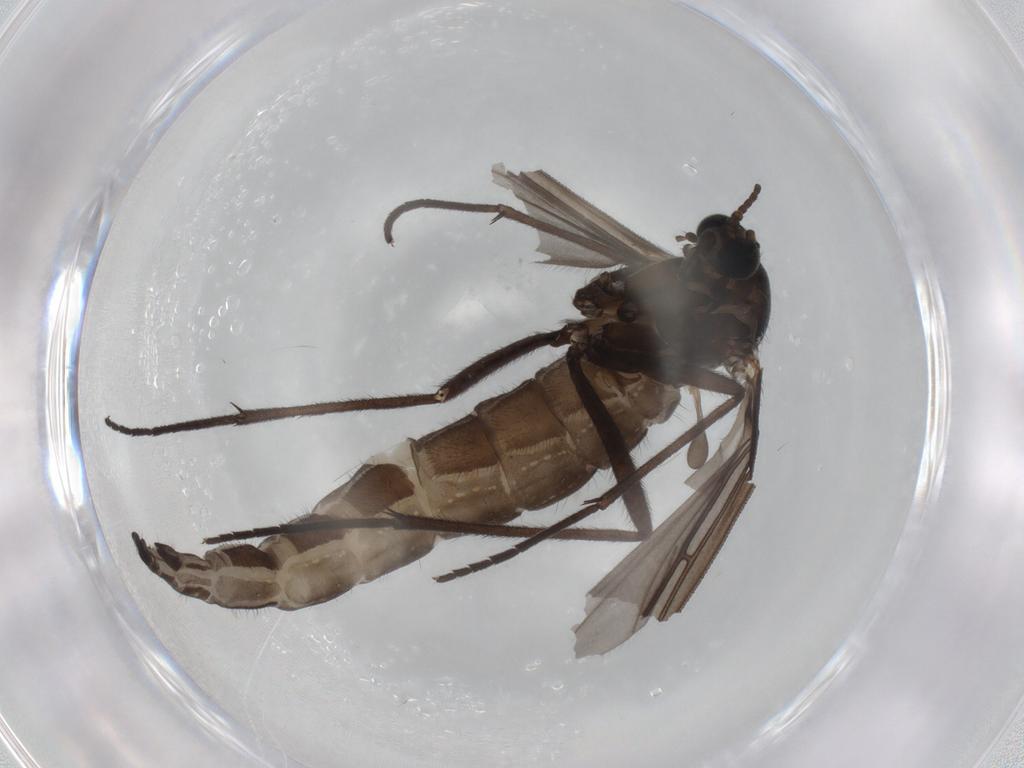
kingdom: Animalia
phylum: Arthropoda
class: Insecta
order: Diptera
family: Sciaridae
